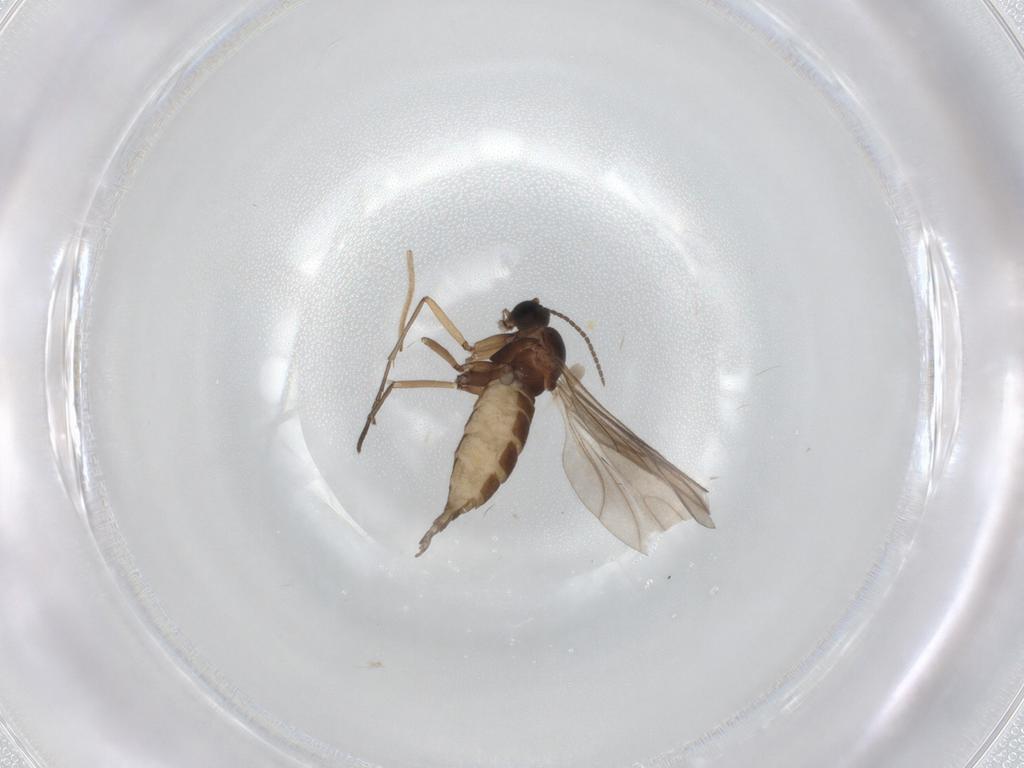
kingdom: Animalia
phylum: Arthropoda
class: Insecta
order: Diptera
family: Sciaridae
